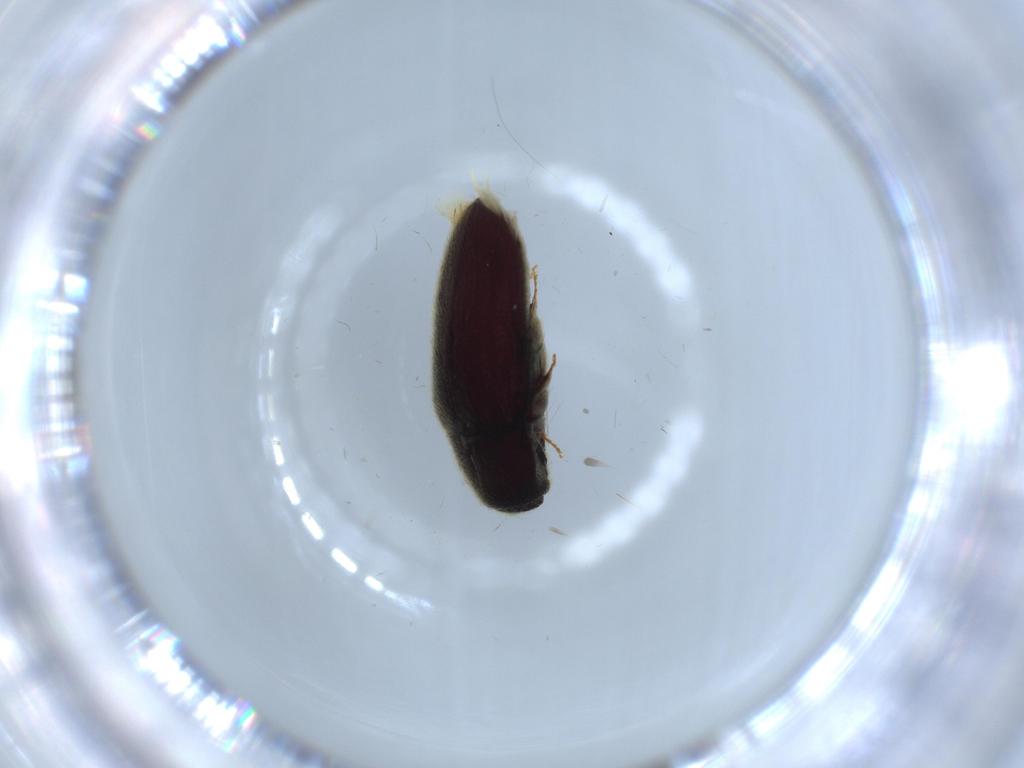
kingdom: Animalia
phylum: Arthropoda
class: Insecta
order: Coleoptera
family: Throscidae
